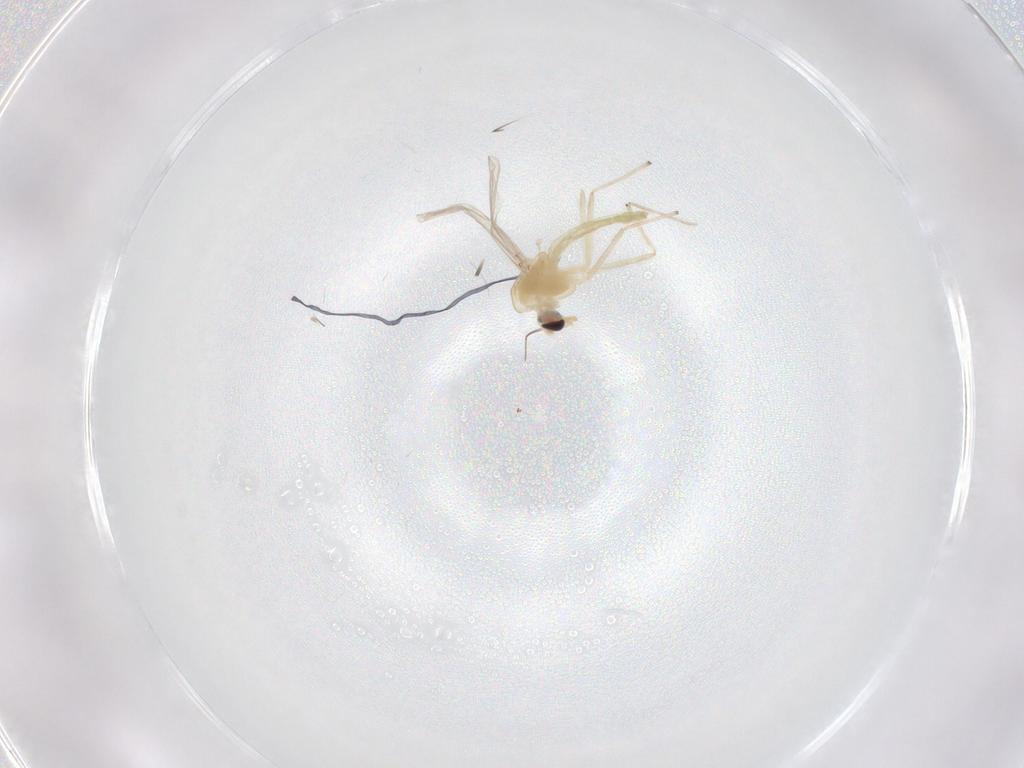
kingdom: Animalia
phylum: Arthropoda
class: Insecta
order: Diptera
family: Chironomidae
